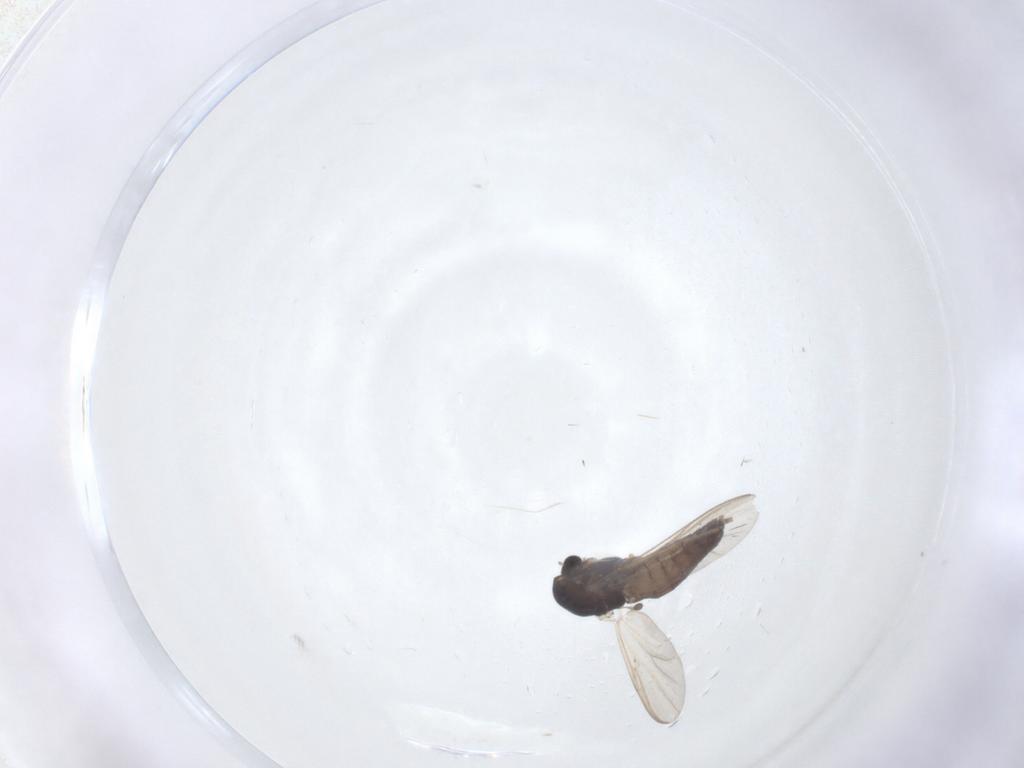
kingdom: Animalia
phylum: Arthropoda
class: Insecta
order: Diptera
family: Chironomidae
